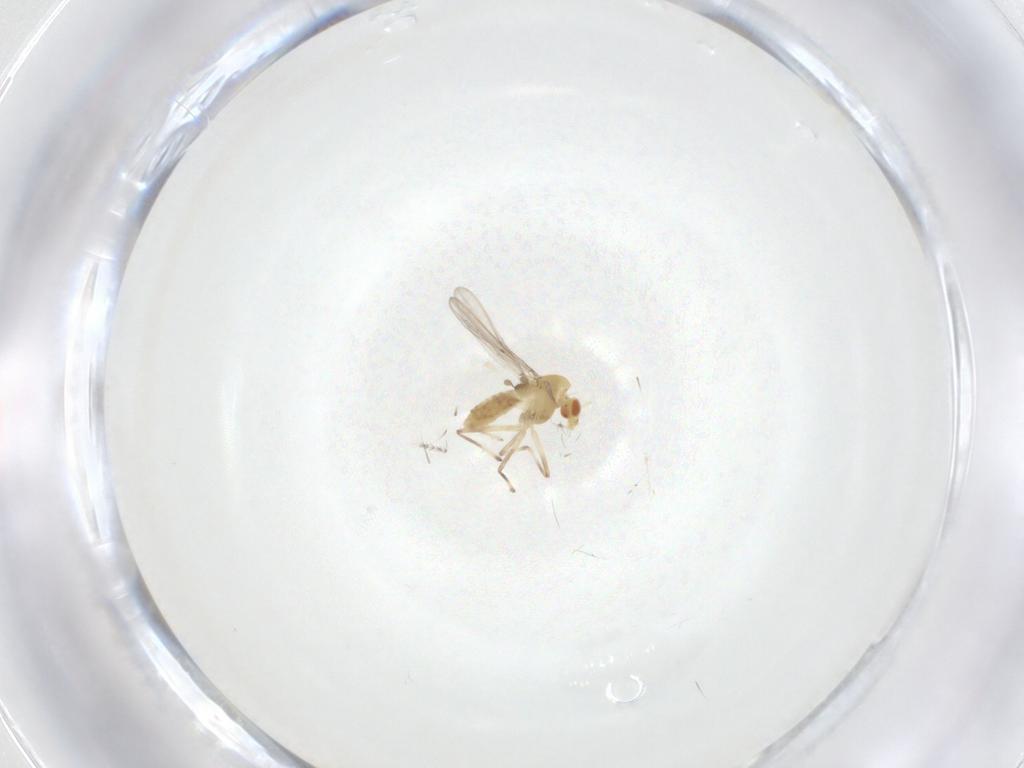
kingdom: Animalia
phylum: Arthropoda
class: Insecta
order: Diptera
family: Chironomidae
